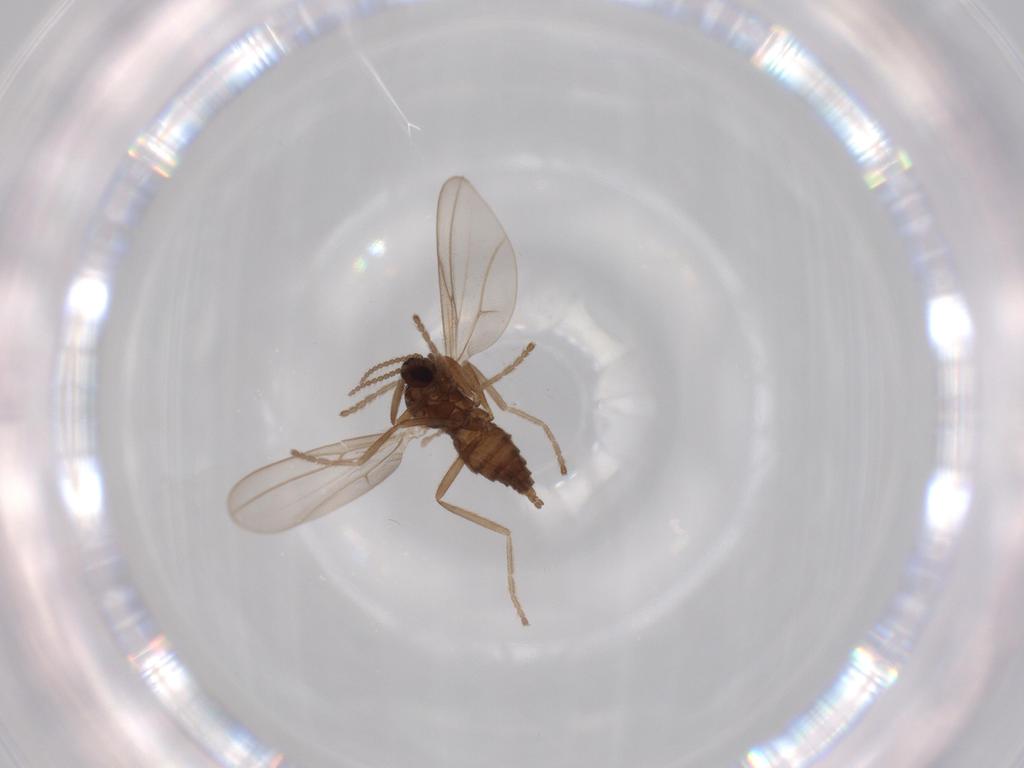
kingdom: Animalia
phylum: Arthropoda
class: Insecta
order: Diptera
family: Cecidomyiidae
